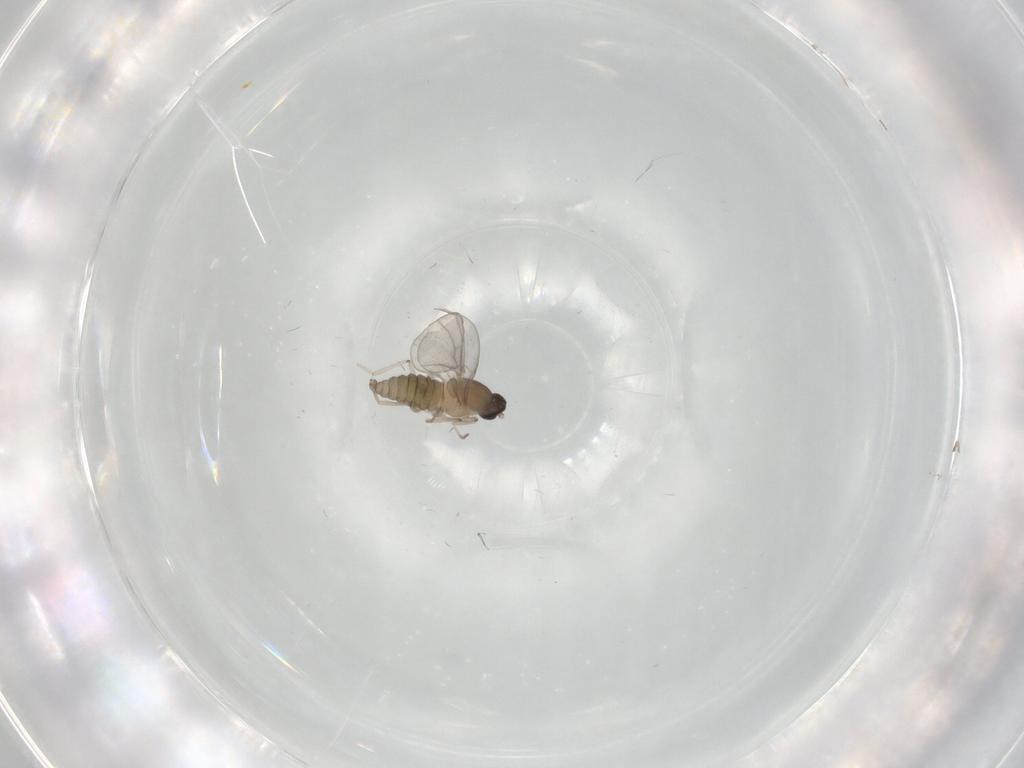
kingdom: Animalia
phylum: Arthropoda
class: Insecta
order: Diptera
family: Cecidomyiidae
